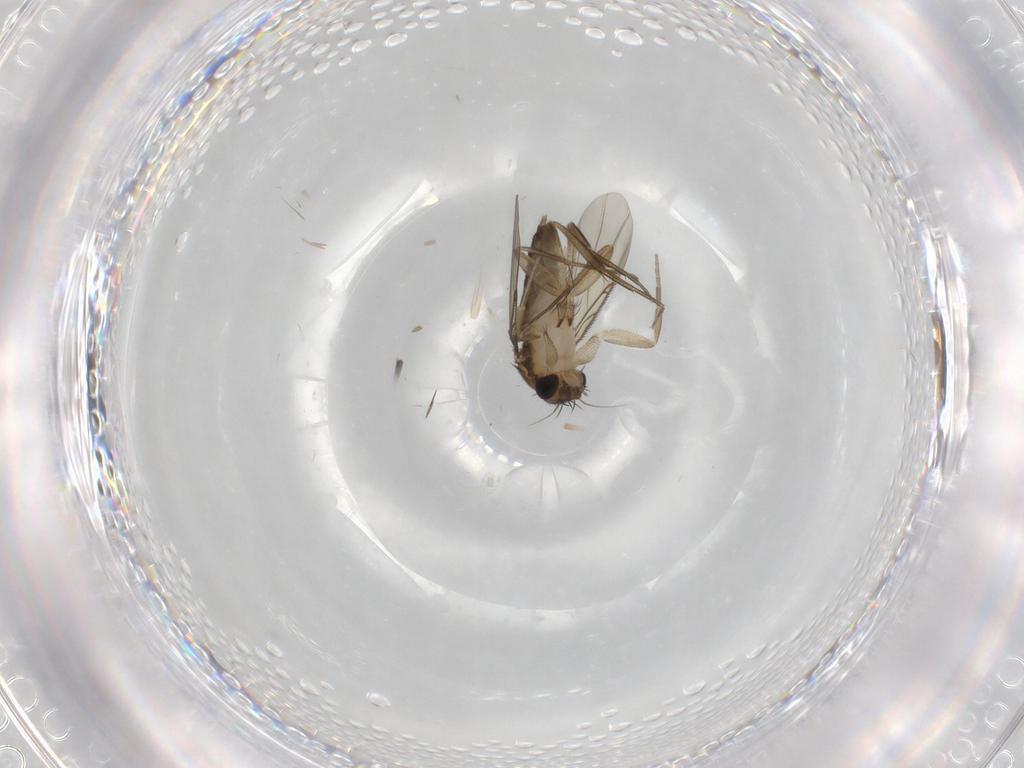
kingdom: Animalia
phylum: Arthropoda
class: Insecta
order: Diptera
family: Phoridae
